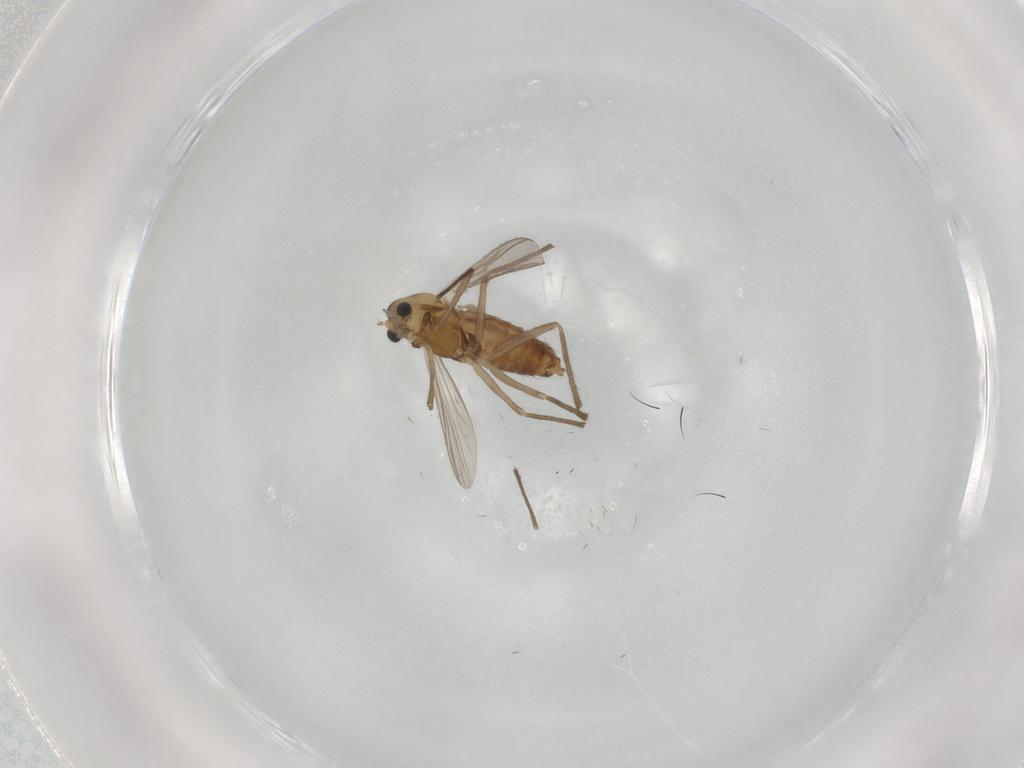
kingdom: Animalia
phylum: Arthropoda
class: Insecta
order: Diptera
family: Chironomidae
